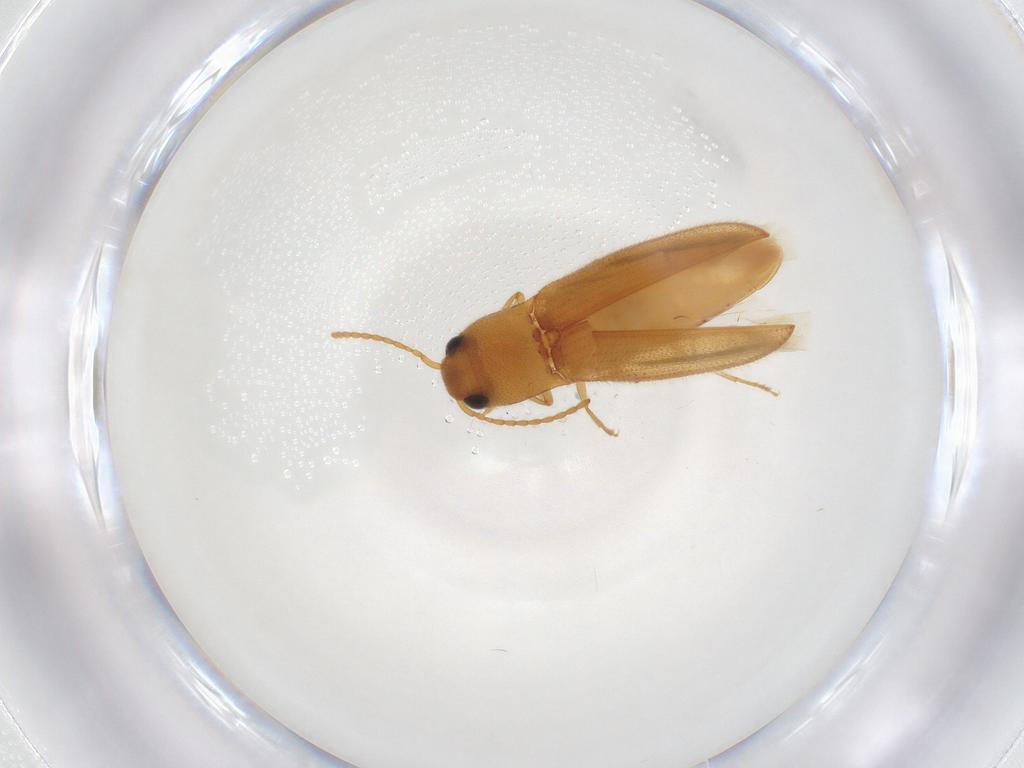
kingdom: Animalia
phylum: Arthropoda
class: Insecta
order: Coleoptera
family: Elateridae
